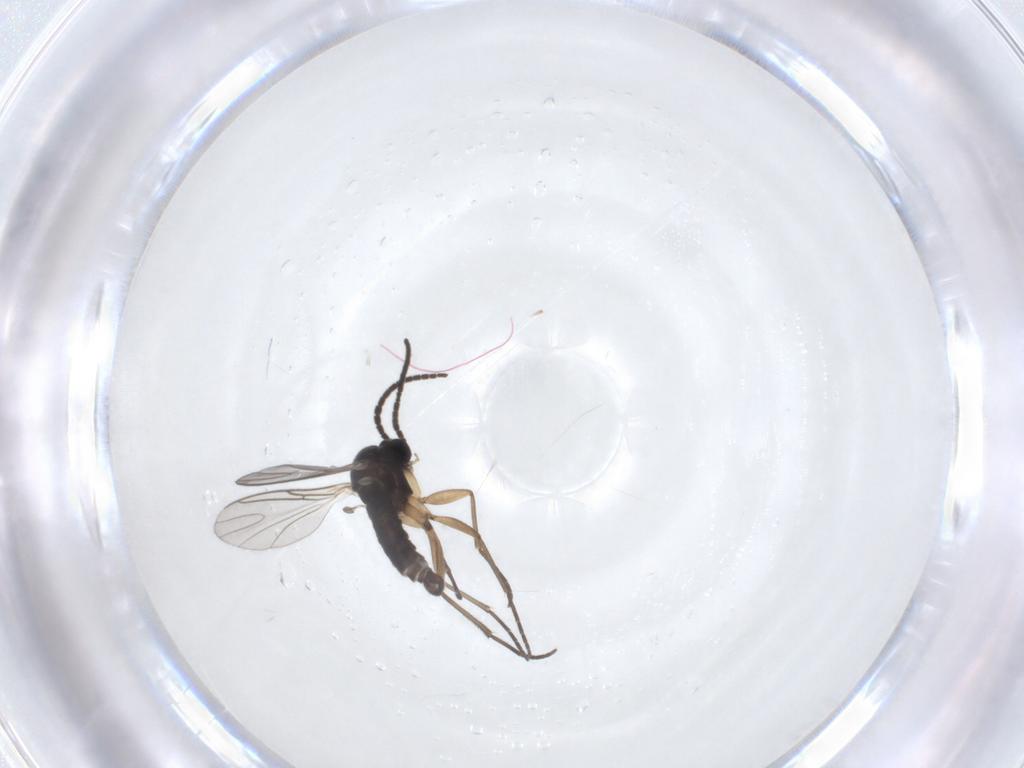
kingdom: Animalia
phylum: Arthropoda
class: Insecta
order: Diptera
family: Sciaridae
